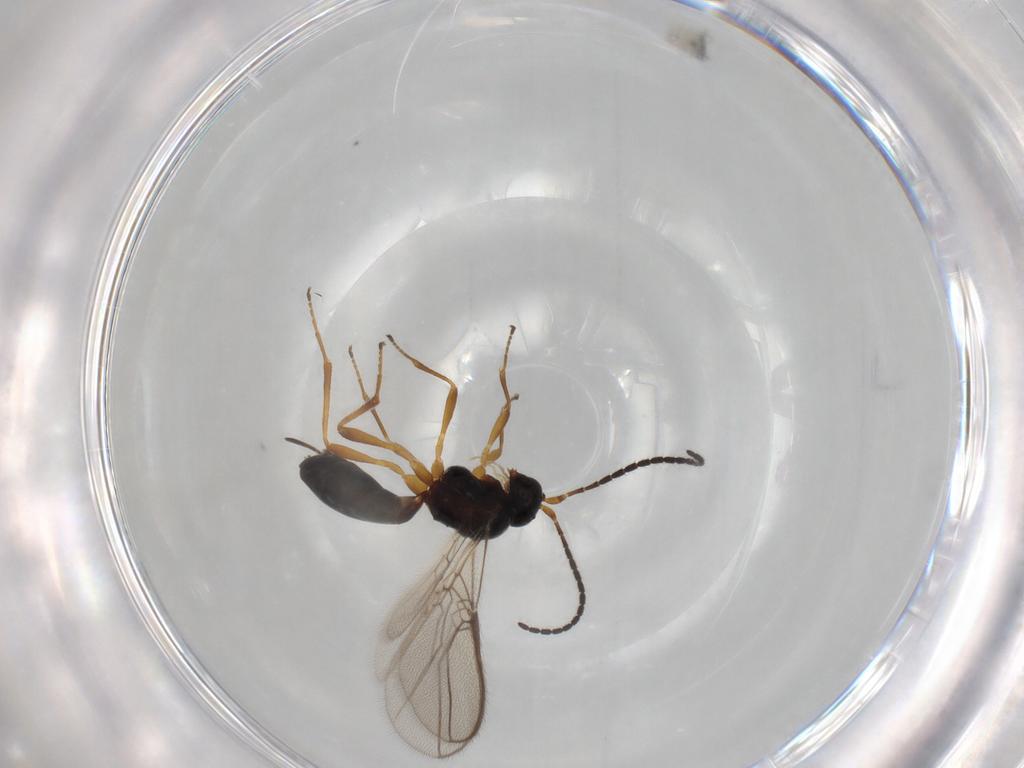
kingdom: Animalia
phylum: Arthropoda
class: Insecta
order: Hymenoptera
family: Braconidae
